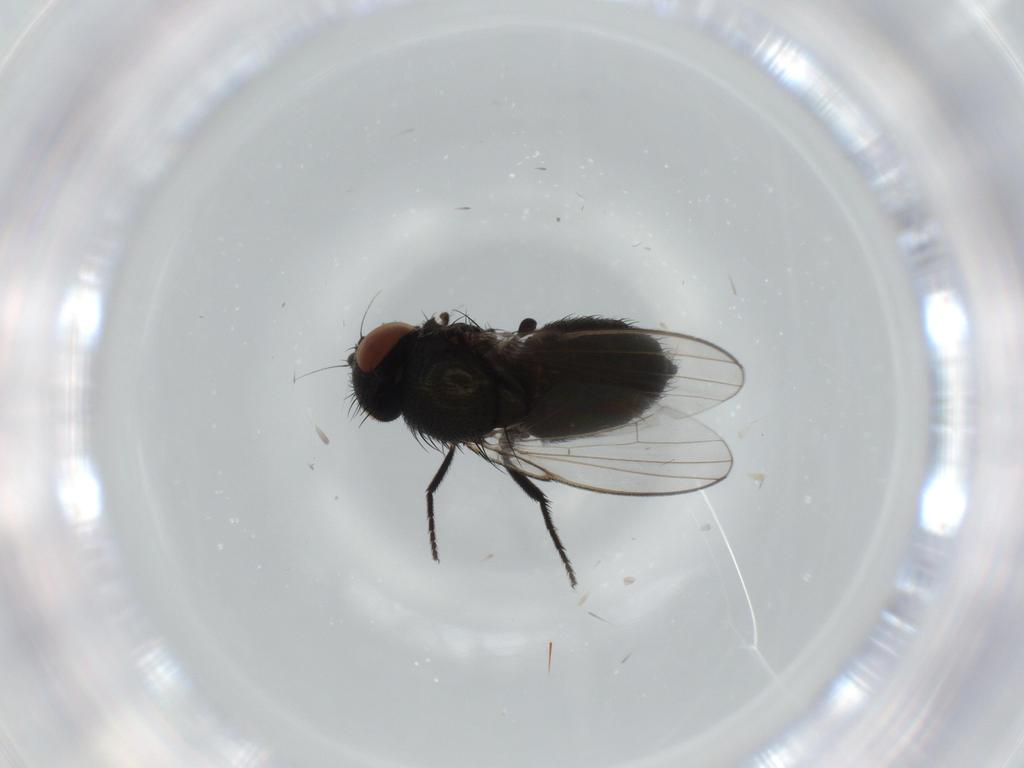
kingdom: Animalia
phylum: Arthropoda
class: Insecta
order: Diptera
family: Milichiidae
